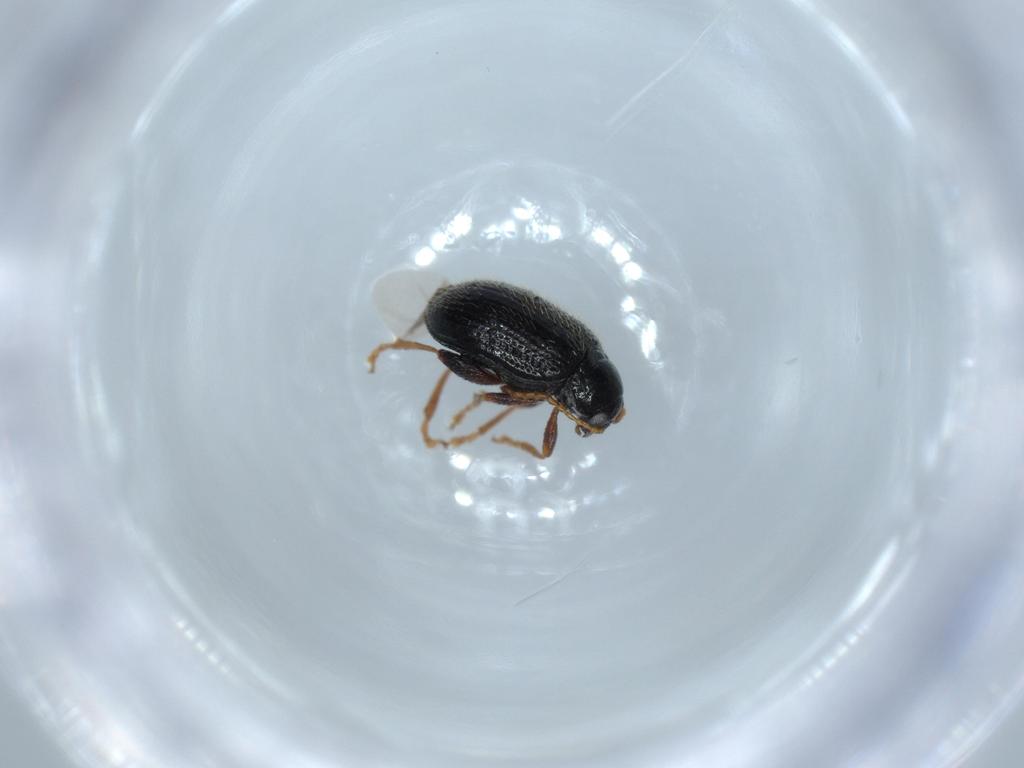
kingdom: Animalia
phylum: Arthropoda
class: Insecta
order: Coleoptera
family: Chrysomelidae
